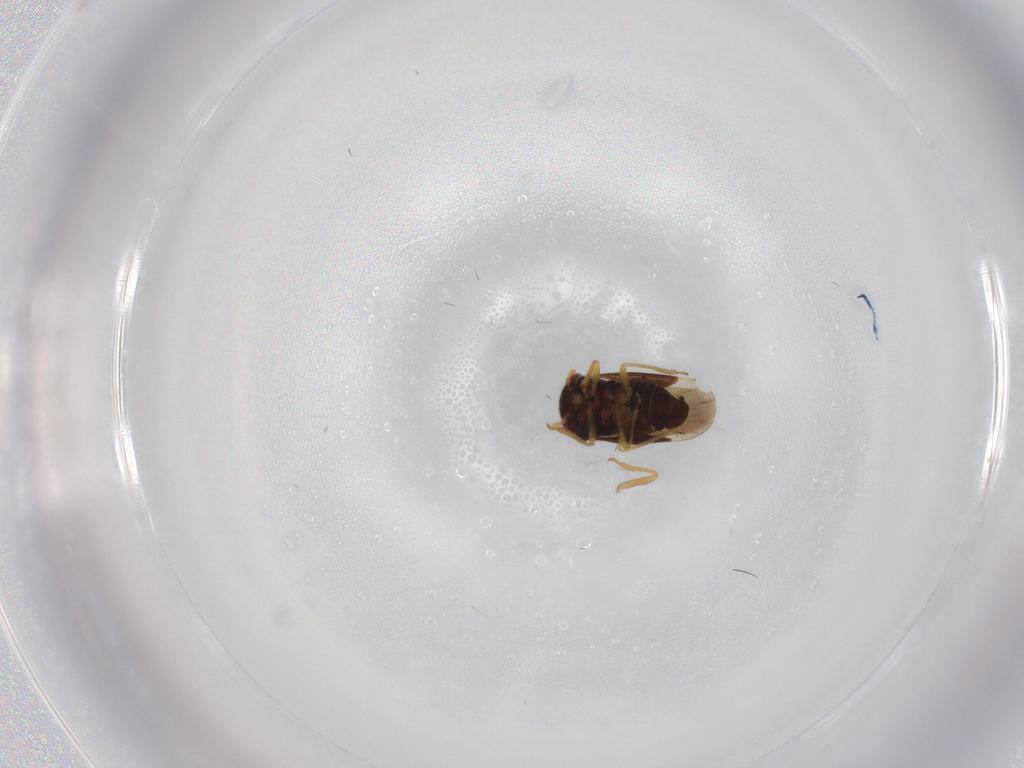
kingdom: Animalia
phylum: Arthropoda
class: Insecta
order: Hemiptera
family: Schizopteridae
